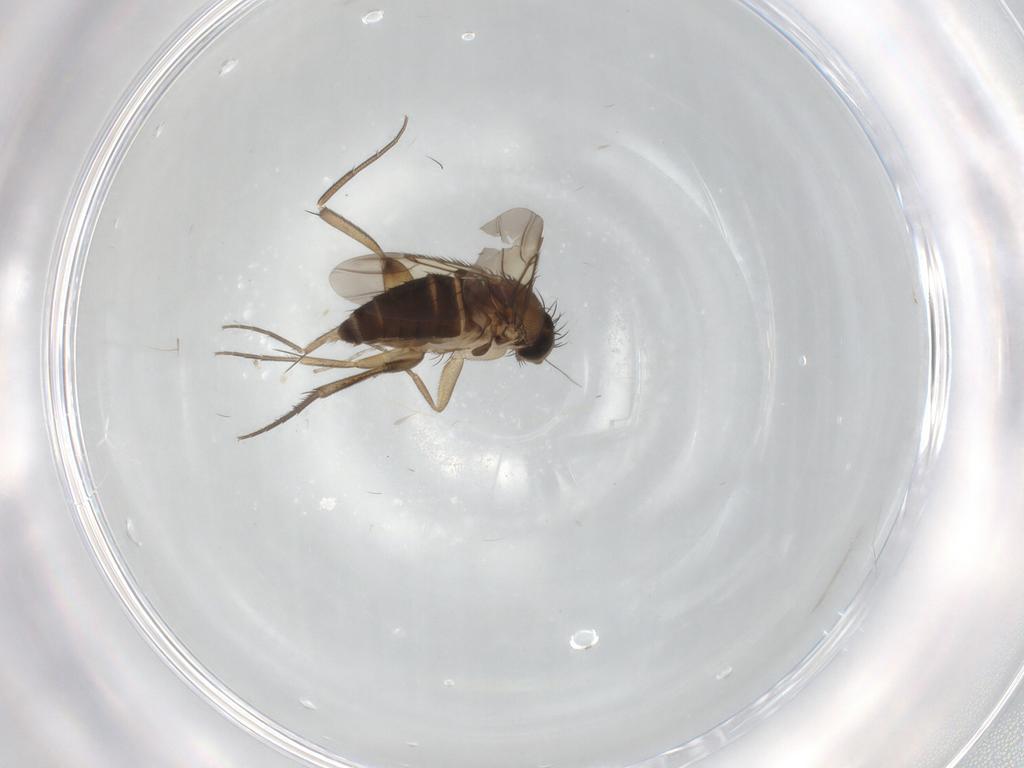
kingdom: Animalia
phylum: Arthropoda
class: Insecta
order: Diptera
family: Phoridae
